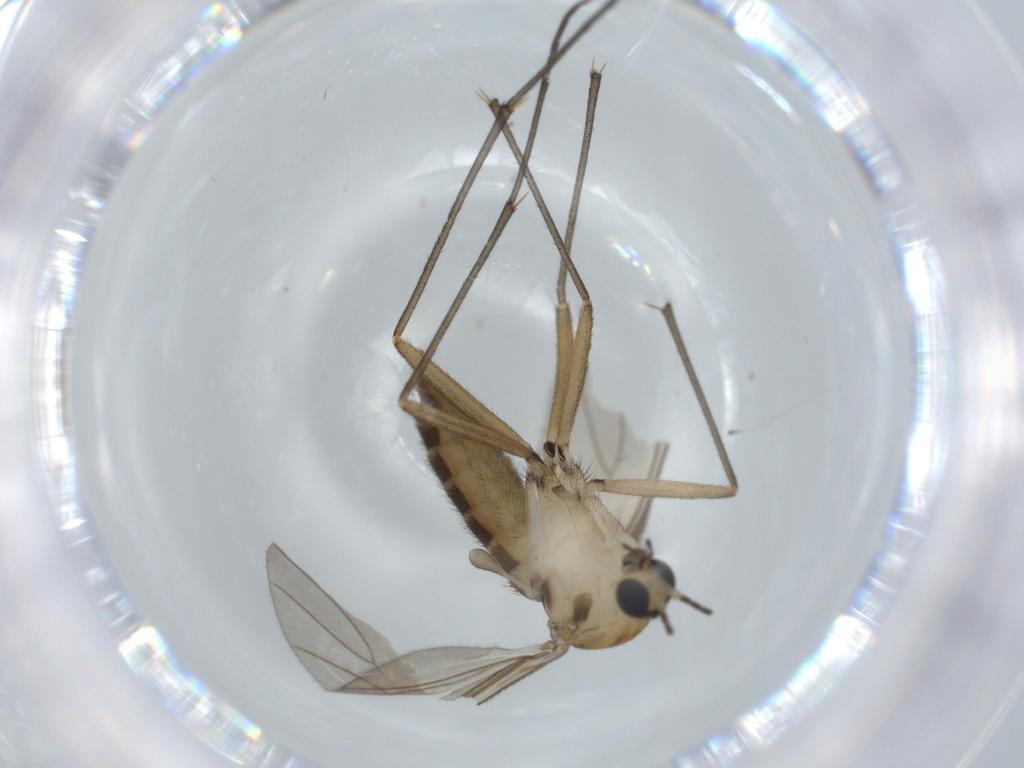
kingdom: Animalia
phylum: Arthropoda
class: Insecta
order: Diptera
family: Sciaridae
